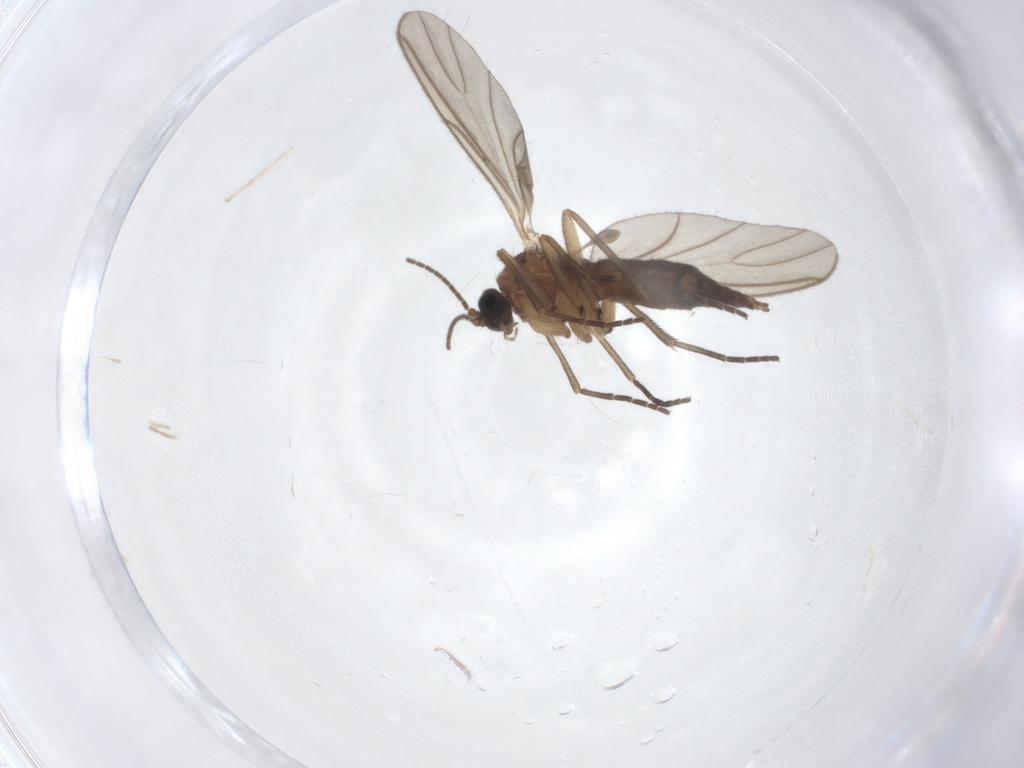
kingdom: Animalia
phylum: Arthropoda
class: Insecta
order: Diptera
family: Sciaridae
